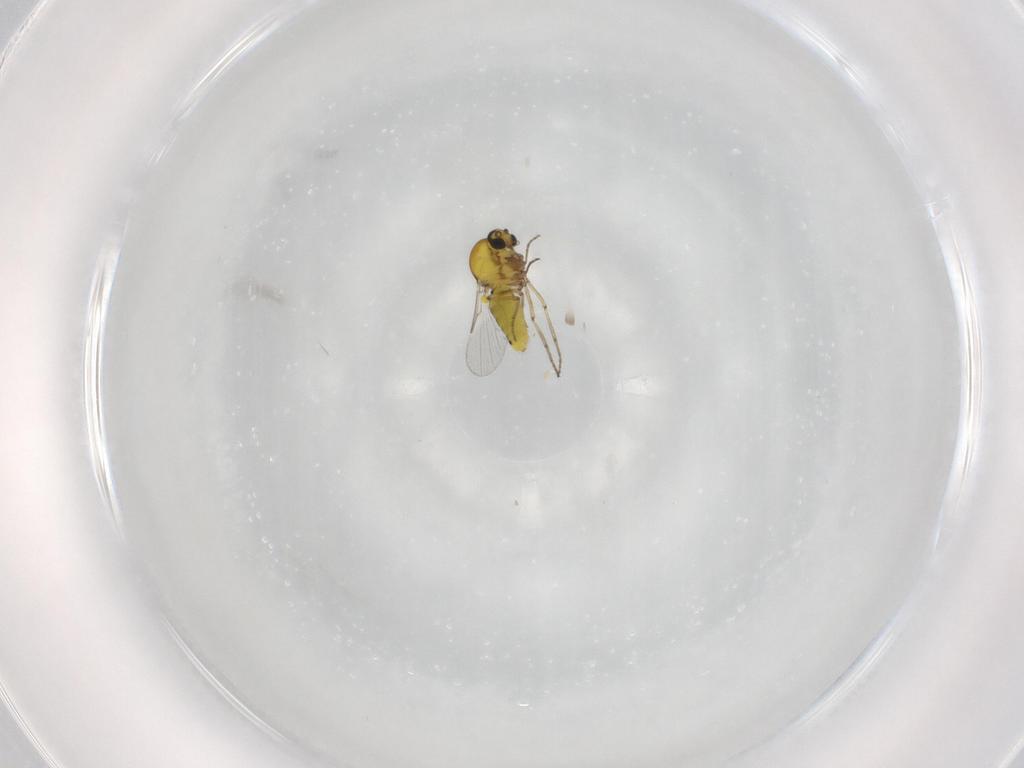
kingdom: Animalia
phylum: Arthropoda
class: Insecta
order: Diptera
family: Ceratopogonidae
